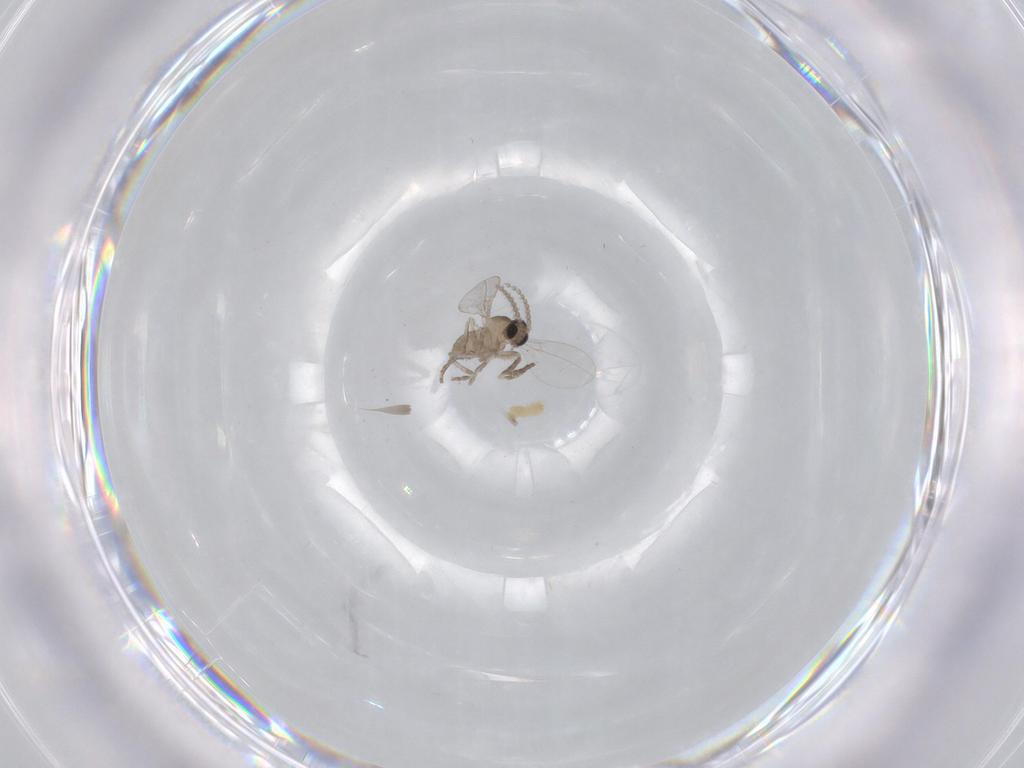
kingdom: Animalia
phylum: Arthropoda
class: Insecta
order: Diptera
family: Cecidomyiidae
